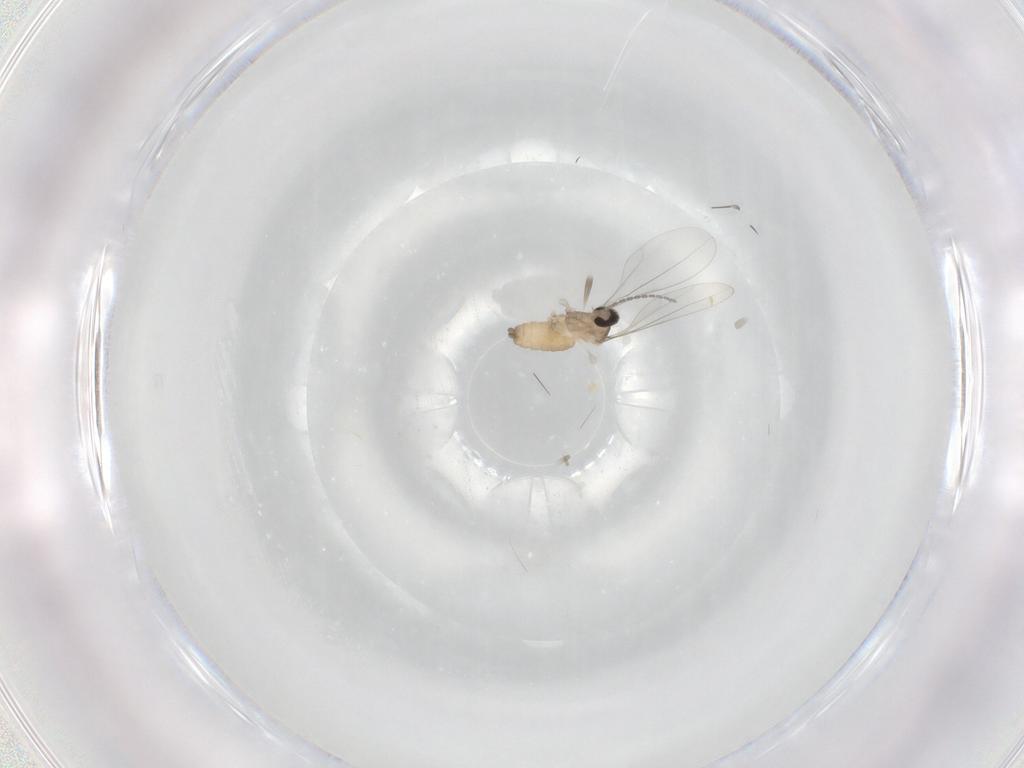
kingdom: Animalia
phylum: Arthropoda
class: Insecta
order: Diptera
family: Cecidomyiidae
